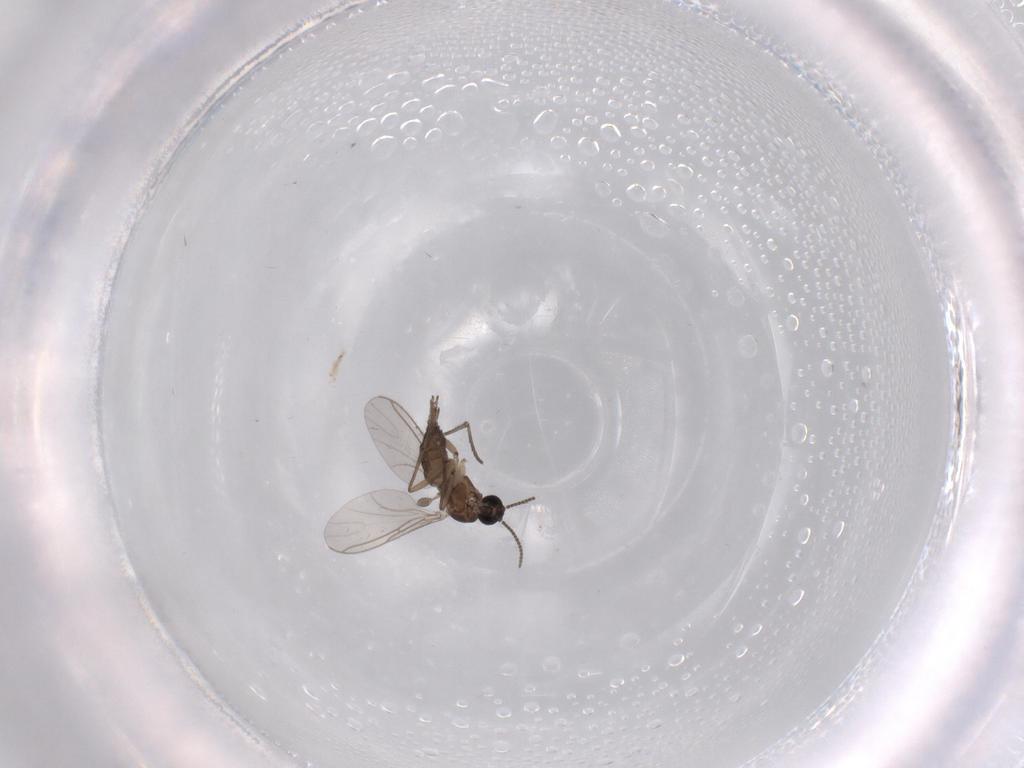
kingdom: Animalia
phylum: Arthropoda
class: Insecta
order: Diptera
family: Sciaridae
